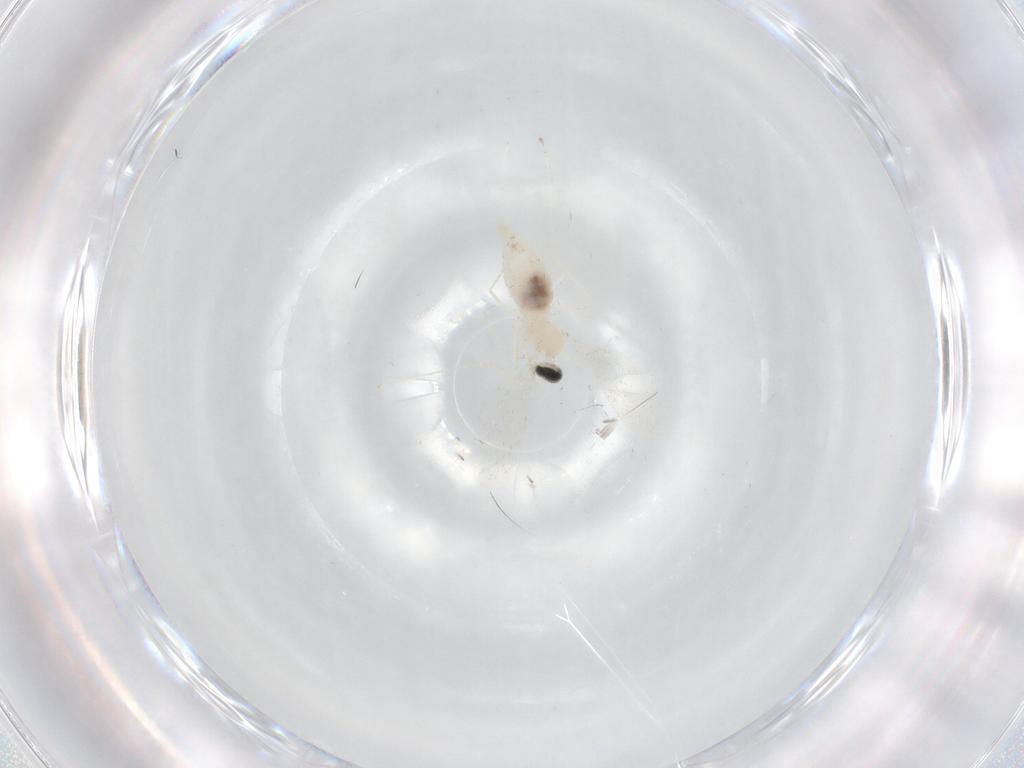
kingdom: Animalia
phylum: Arthropoda
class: Insecta
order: Diptera
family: Cecidomyiidae
